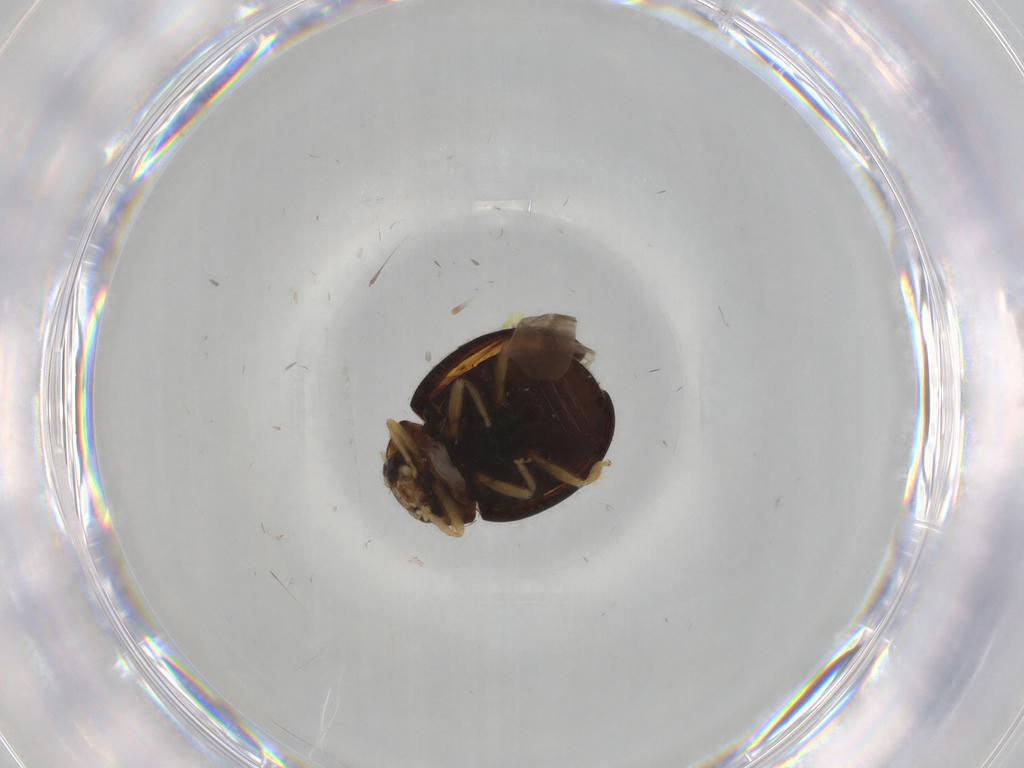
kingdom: Animalia
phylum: Arthropoda
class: Insecta
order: Coleoptera
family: Coccinellidae
